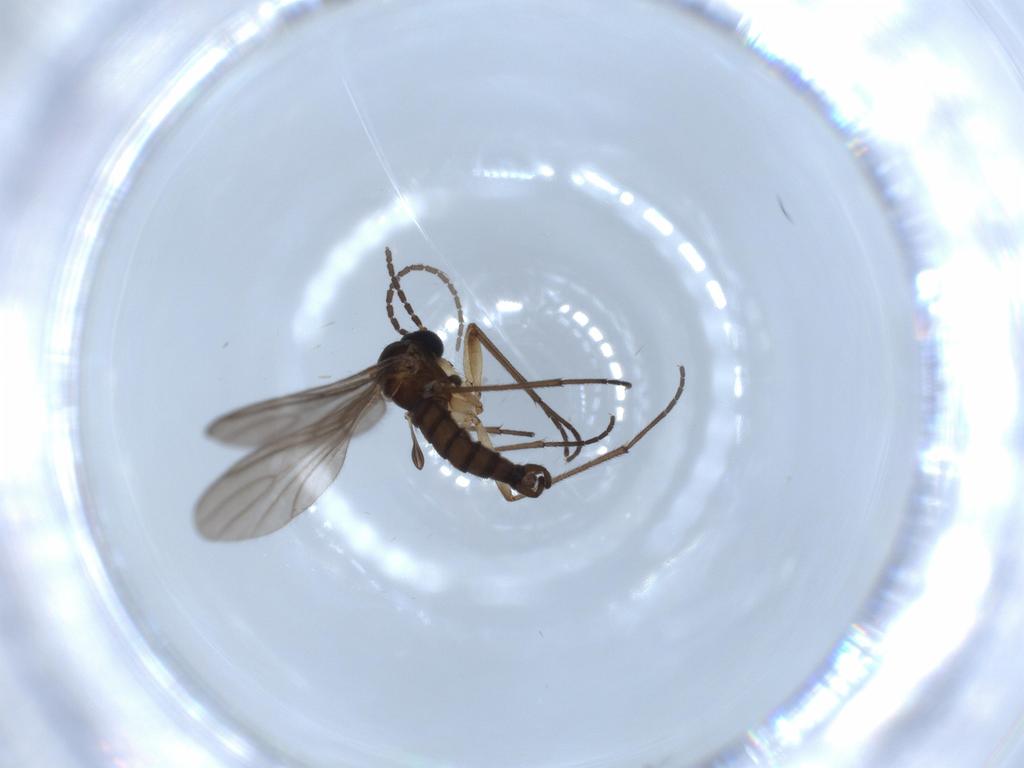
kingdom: Animalia
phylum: Arthropoda
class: Insecta
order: Diptera
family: Sciaridae
